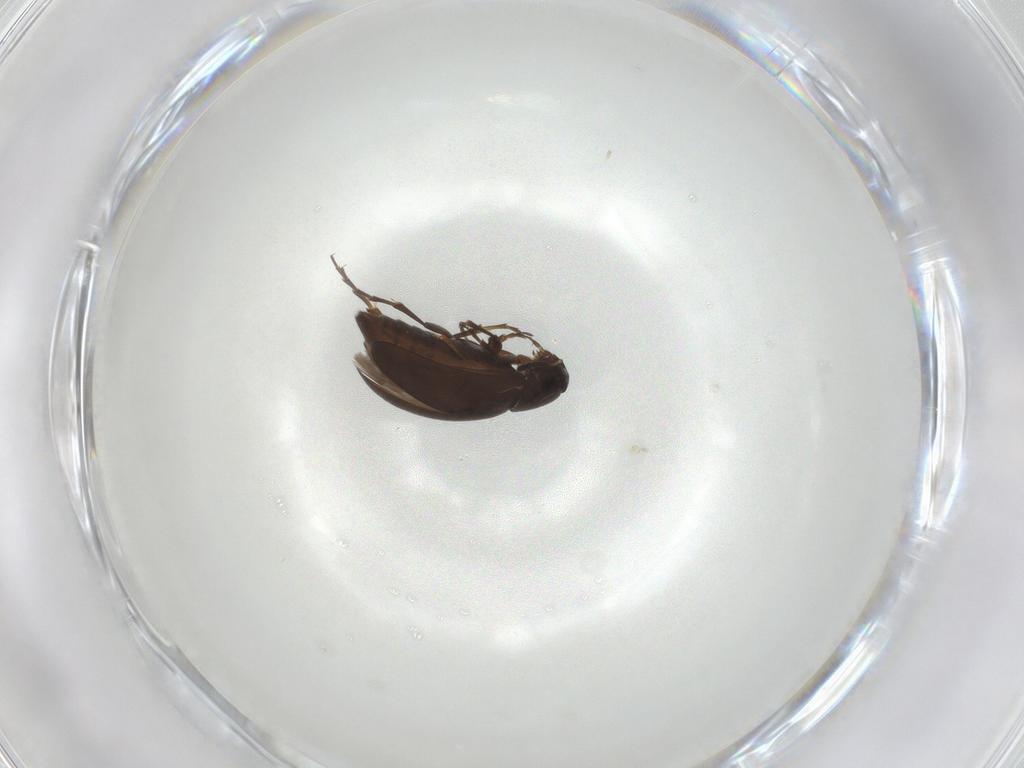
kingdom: Animalia
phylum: Arthropoda
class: Insecta
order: Coleoptera
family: Scraptiidae
